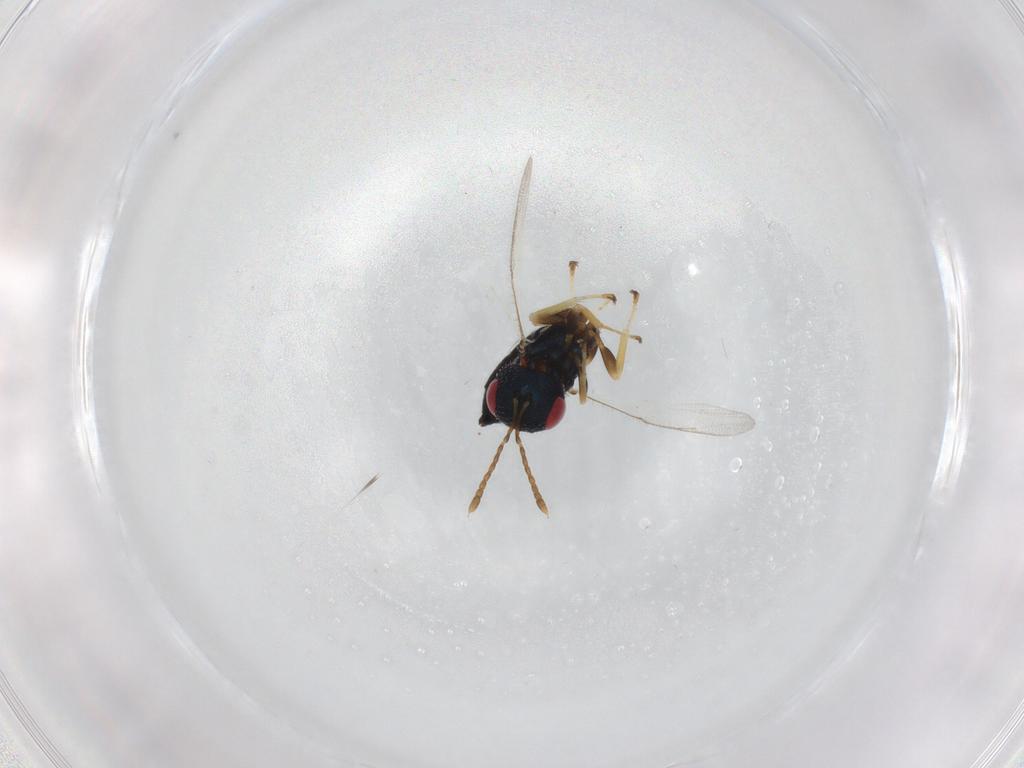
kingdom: Animalia
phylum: Arthropoda
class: Insecta
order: Hymenoptera
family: Pteromalidae
